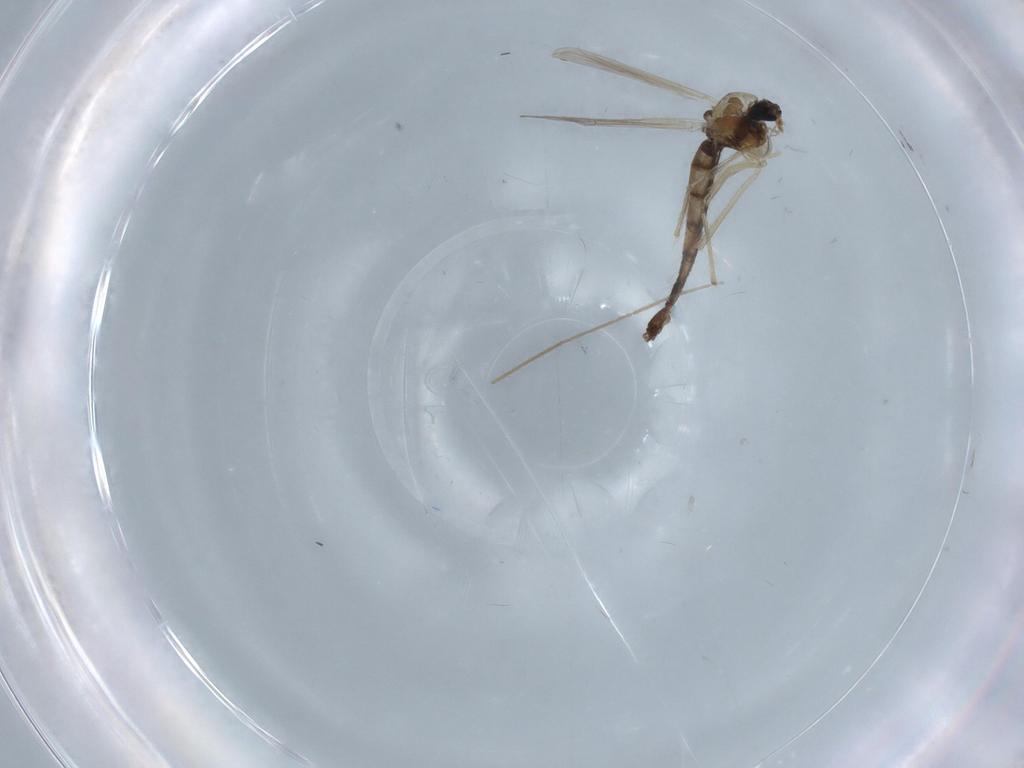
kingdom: Animalia
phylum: Arthropoda
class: Insecta
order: Diptera
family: Chironomidae
